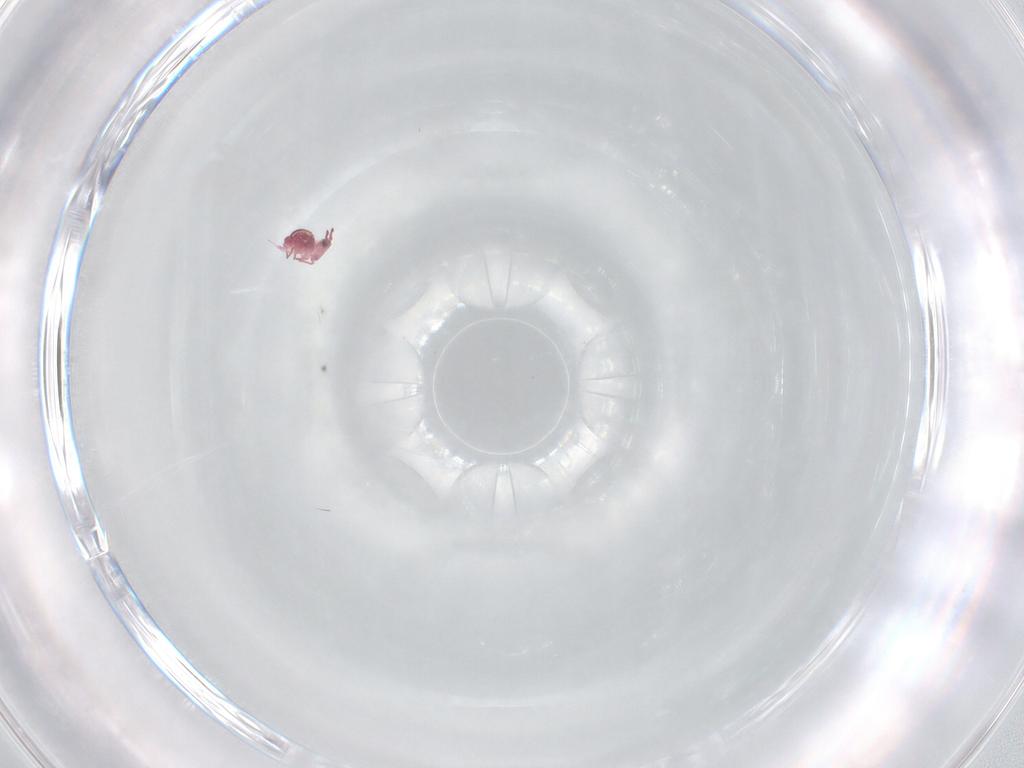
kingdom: Animalia
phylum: Arthropoda
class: Collembola
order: Symphypleona
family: Sminthurididae
